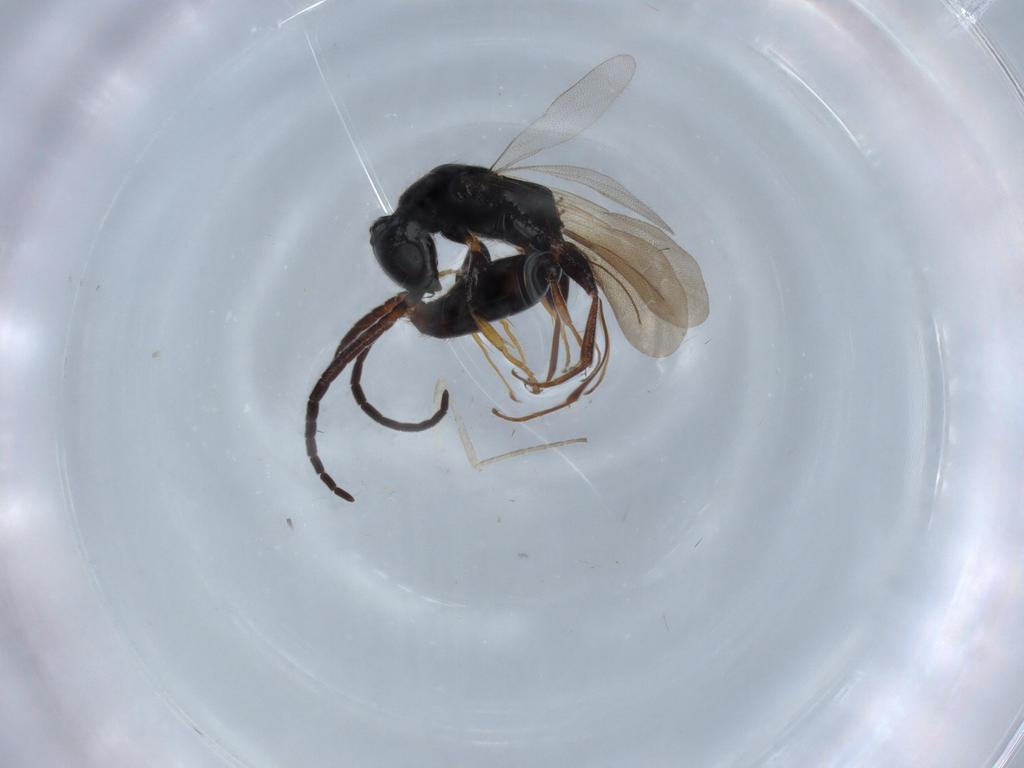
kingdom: Animalia
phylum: Arthropoda
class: Insecta
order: Hymenoptera
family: Bethylidae
